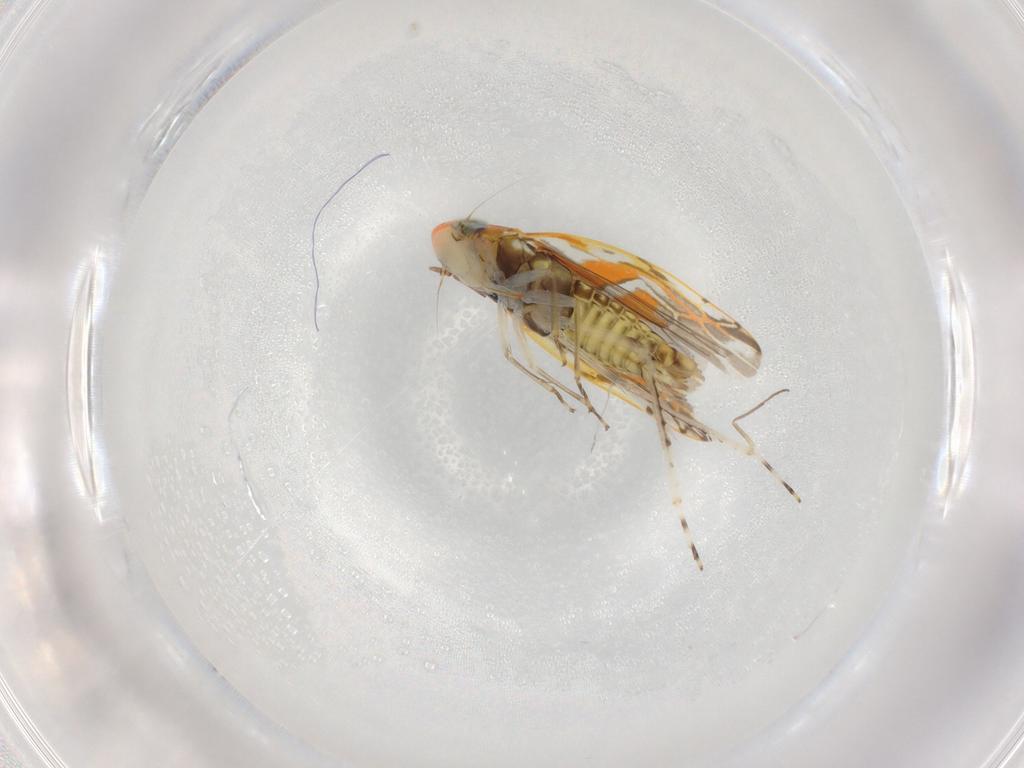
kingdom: Animalia
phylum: Arthropoda
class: Insecta
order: Hemiptera
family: Cicadellidae
